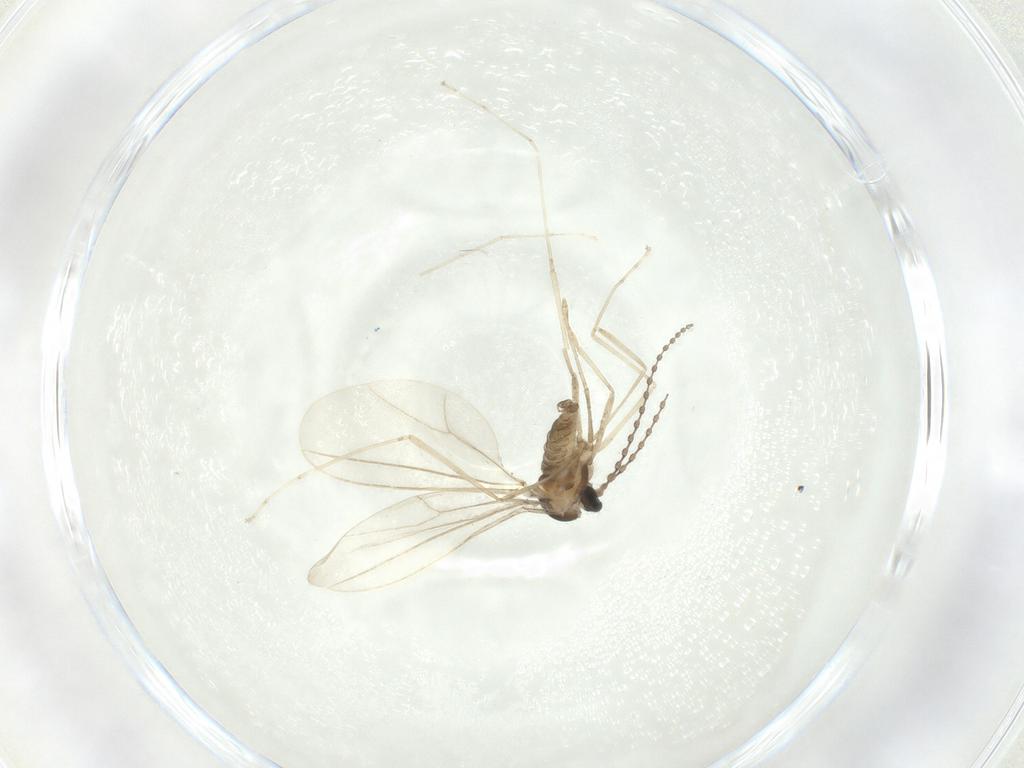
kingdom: Animalia
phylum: Arthropoda
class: Insecta
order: Diptera
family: Cecidomyiidae
